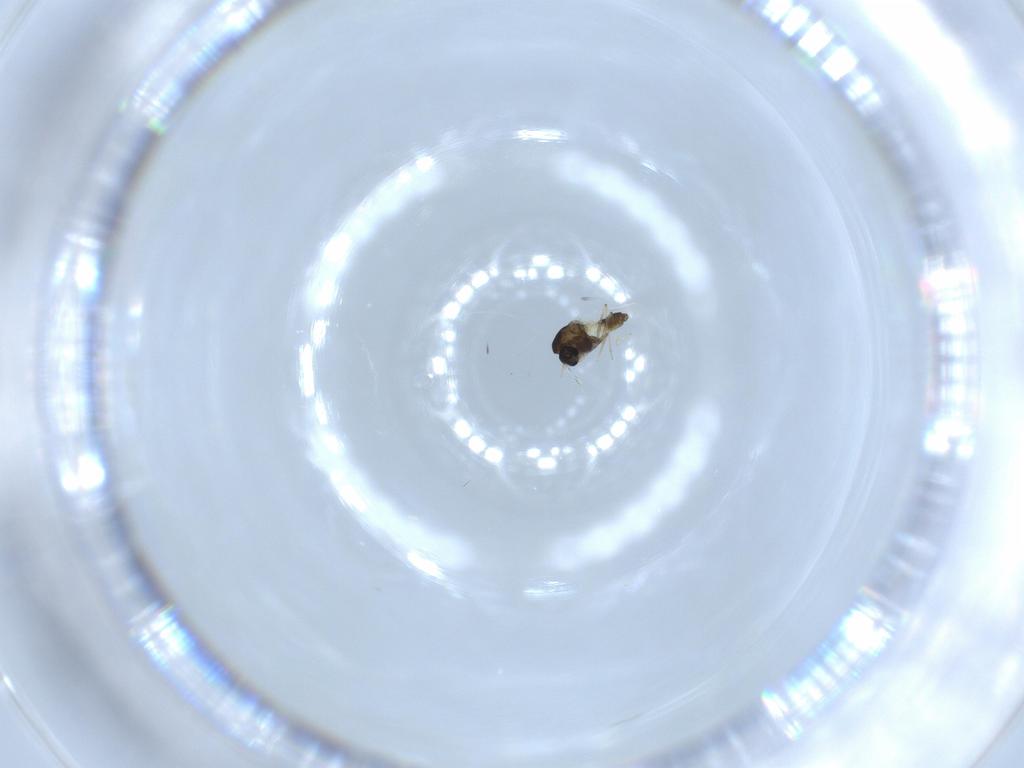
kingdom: Animalia
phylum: Arthropoda
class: Insecta
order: Diptera
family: Chironomidae
